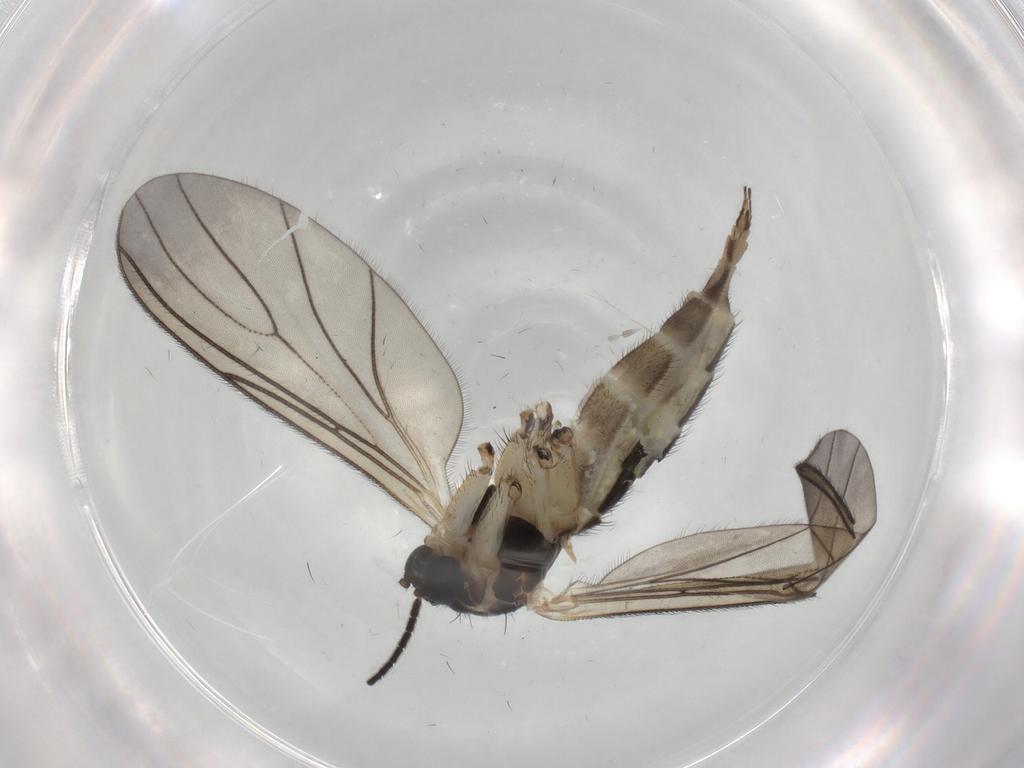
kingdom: Animalia
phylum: Arthropoda
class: Insecta
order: Diptera
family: Sciaridae
